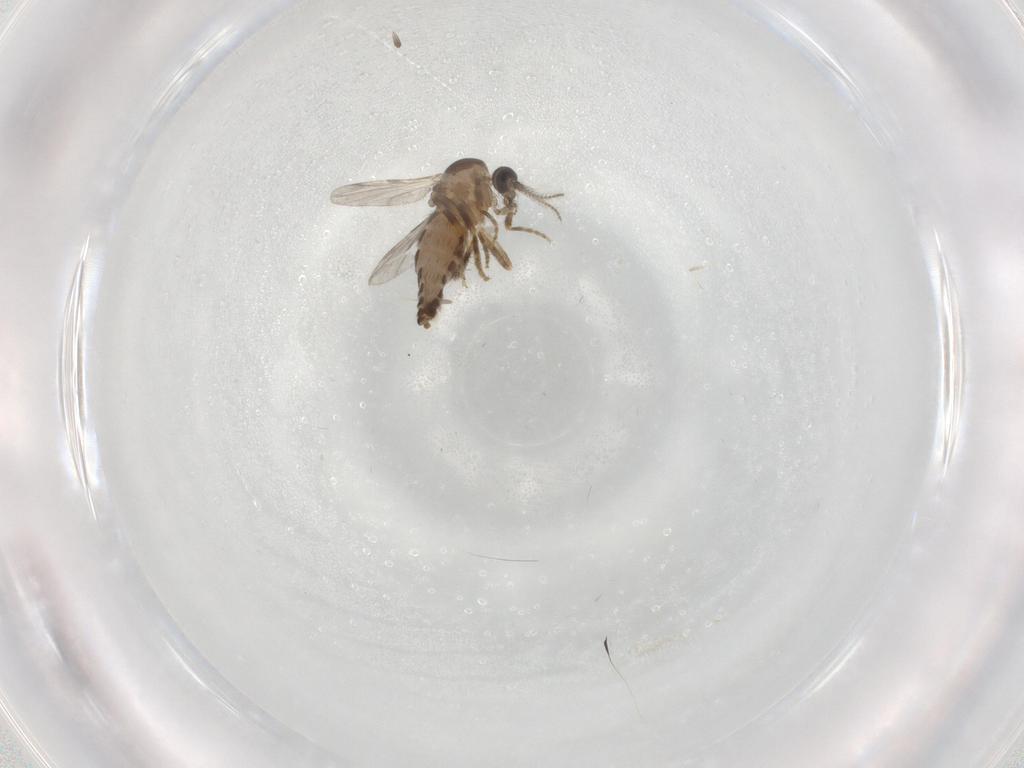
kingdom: Animalia
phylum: Arthropoda
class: Insecta
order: Diptera
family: Ceratopogonidae
